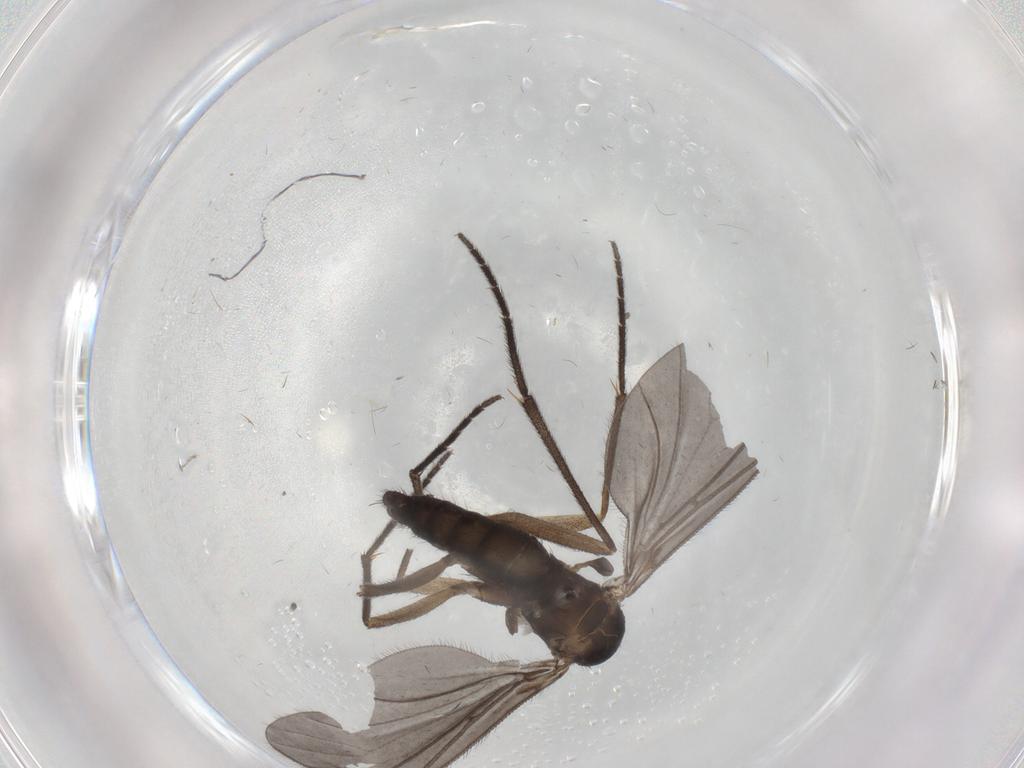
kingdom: Animalia
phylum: Arthropoda
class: Insecta
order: Diptera
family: Sciaridae
